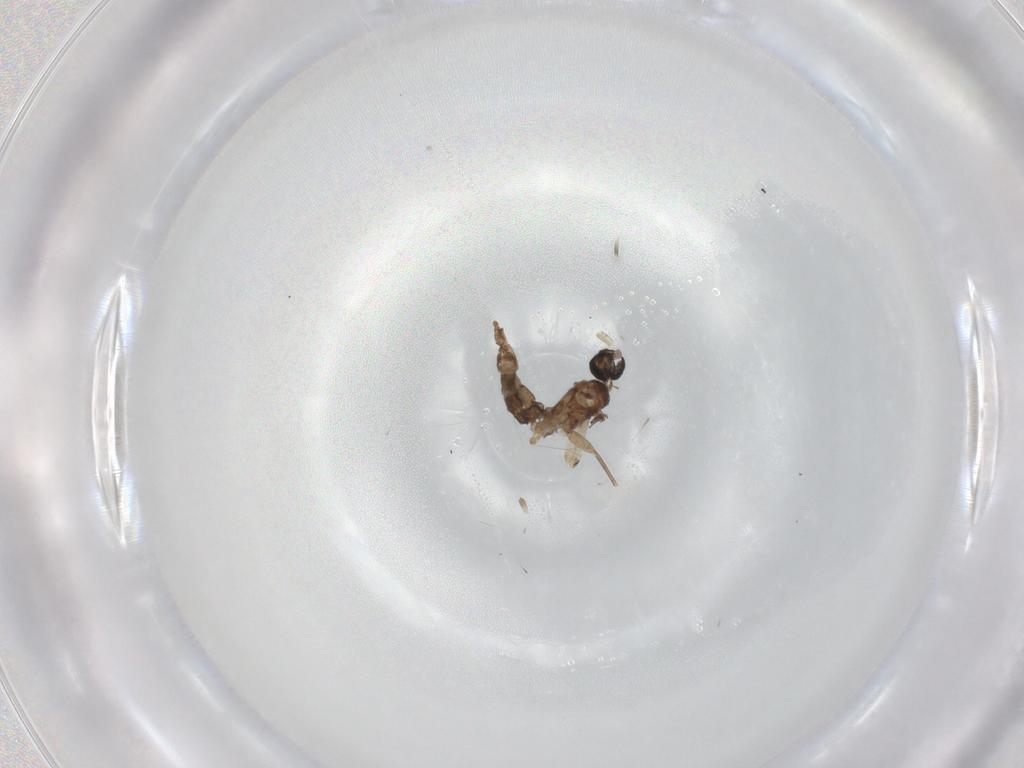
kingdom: Animalia
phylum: Arthropoda
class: Insecta
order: Diptera
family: Sciaridae
